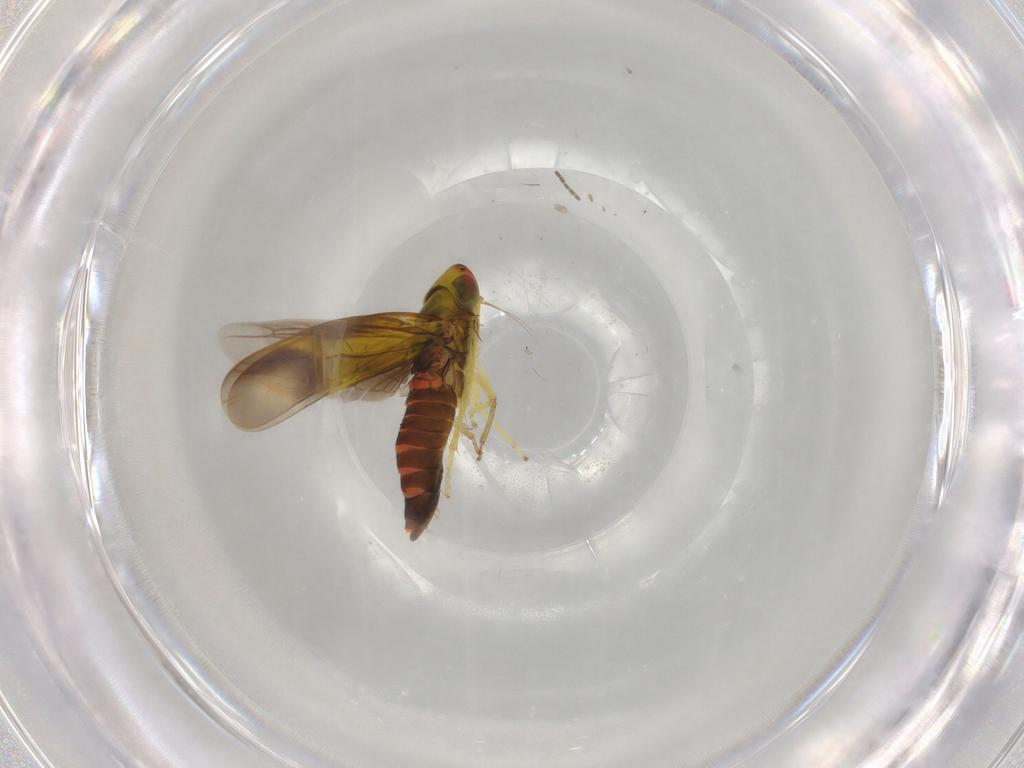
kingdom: Animalia
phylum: Arthropoda
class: Insecta
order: Hemiptera
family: Cicadellidae
